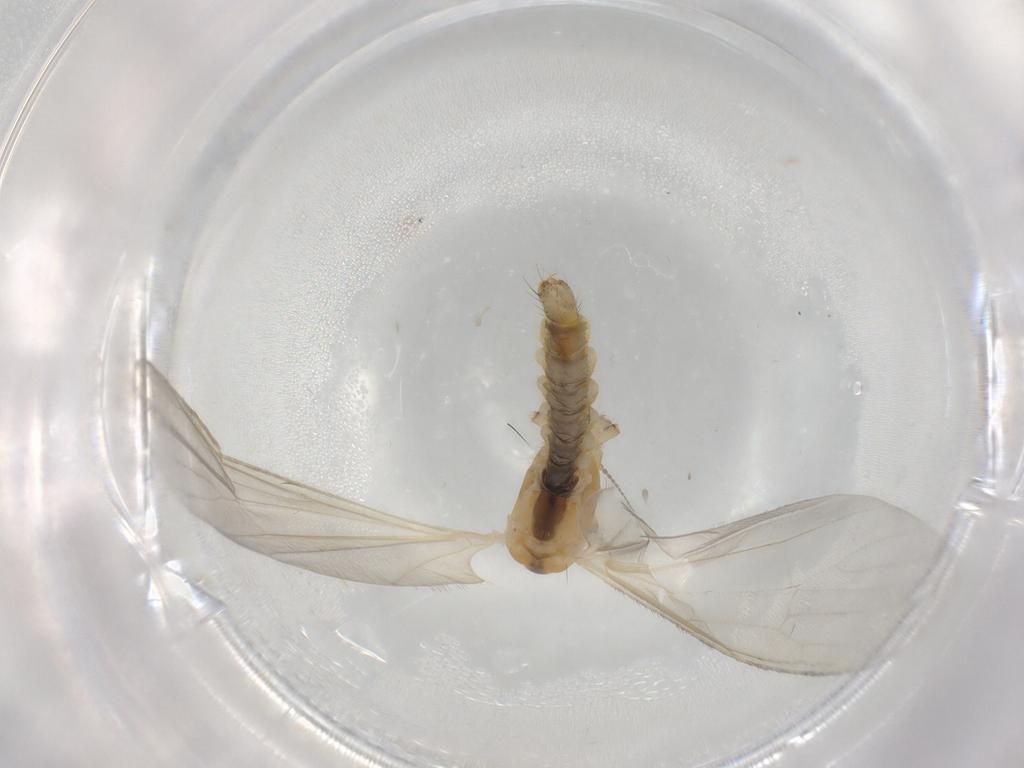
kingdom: Animalia
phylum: Arthropoda
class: Insecta
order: Diptera
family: Limoniidae
